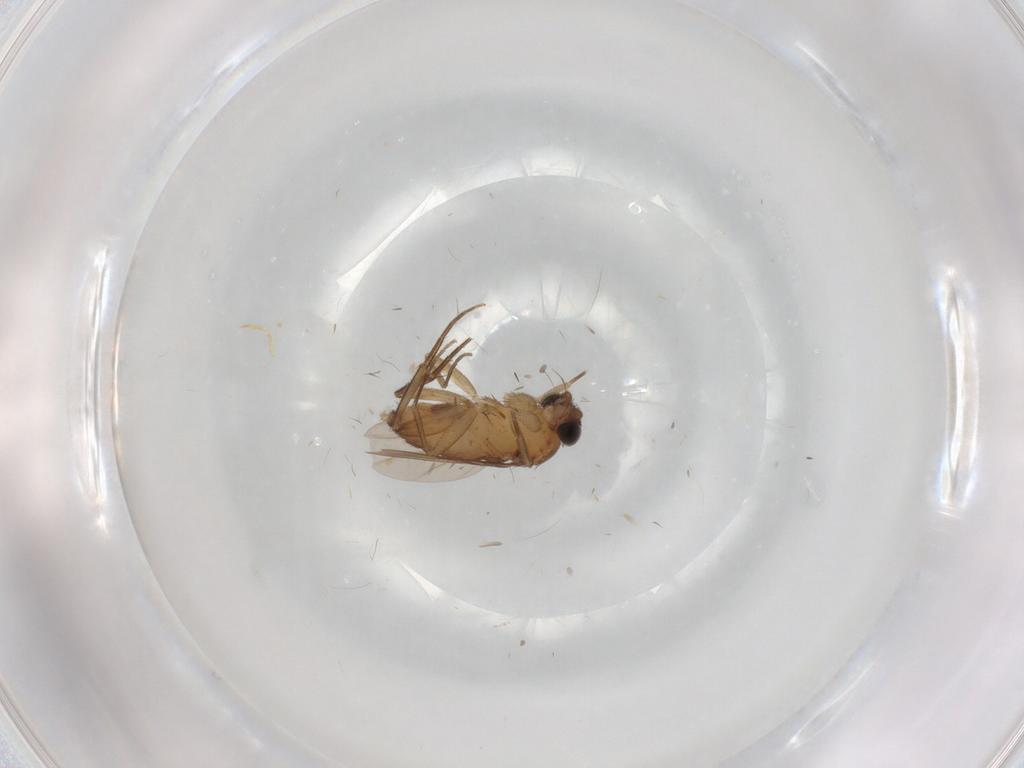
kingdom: Animalia
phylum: Arthropoda
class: Insecta
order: Diptera
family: Phoridae
